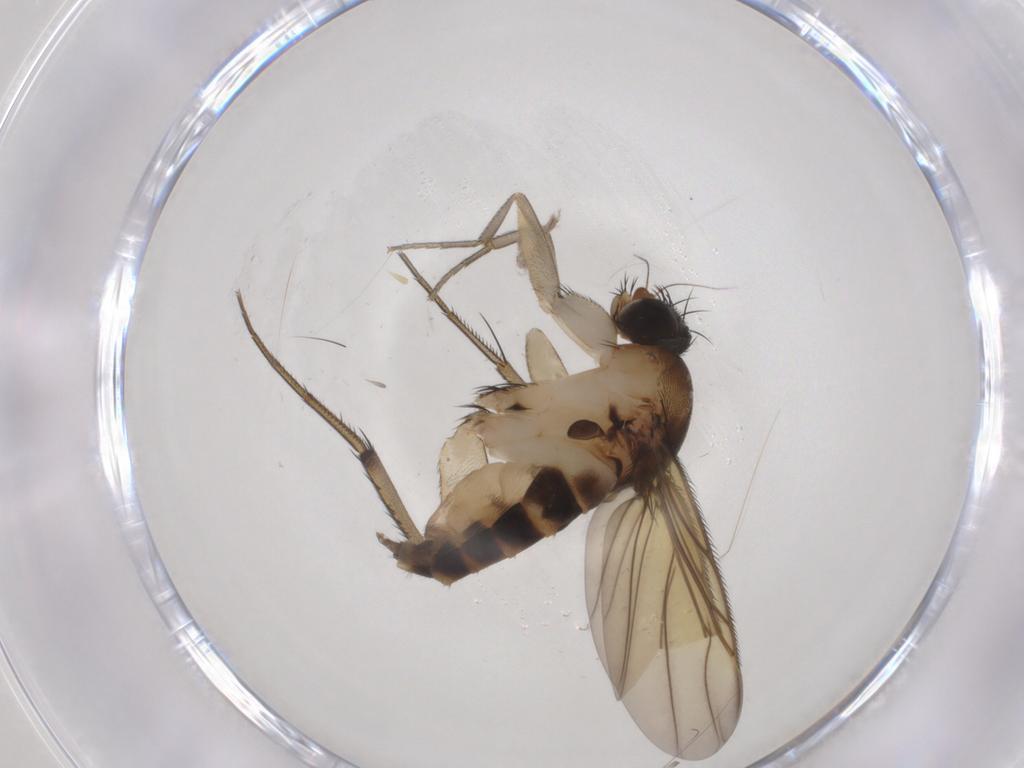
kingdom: Animalia
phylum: Arthropoda
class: Insecta
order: Diptera
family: Phoridae
